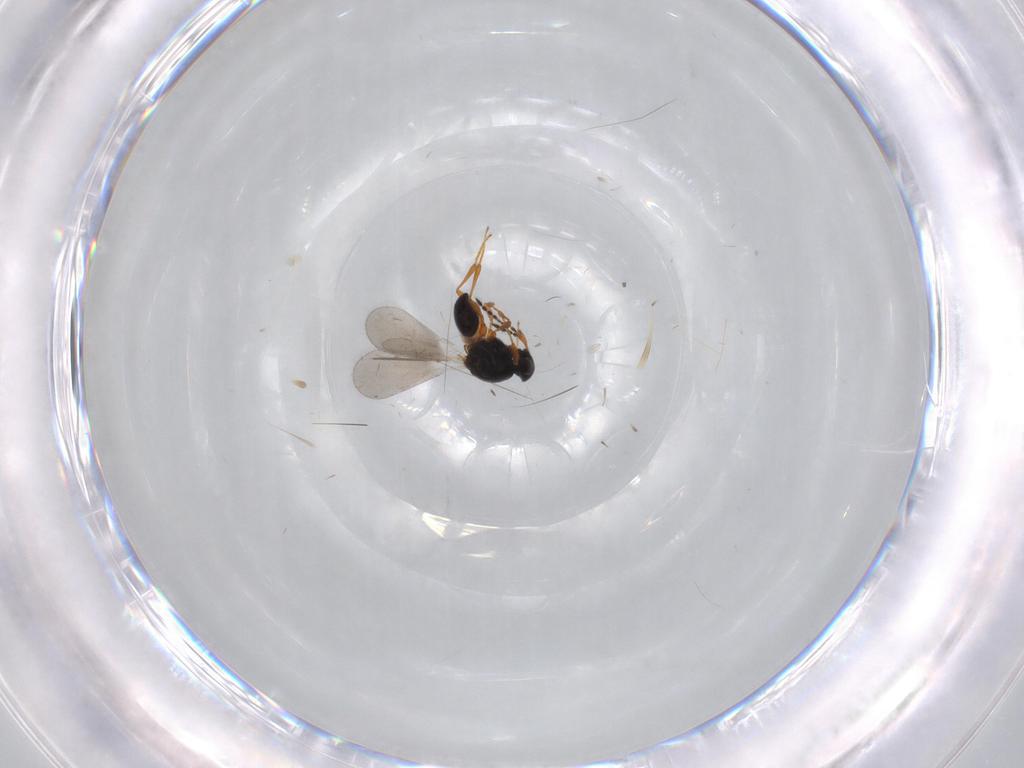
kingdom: Animalia
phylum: Arthropoda
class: Insecta
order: Hymenoptera
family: Platygastridae
